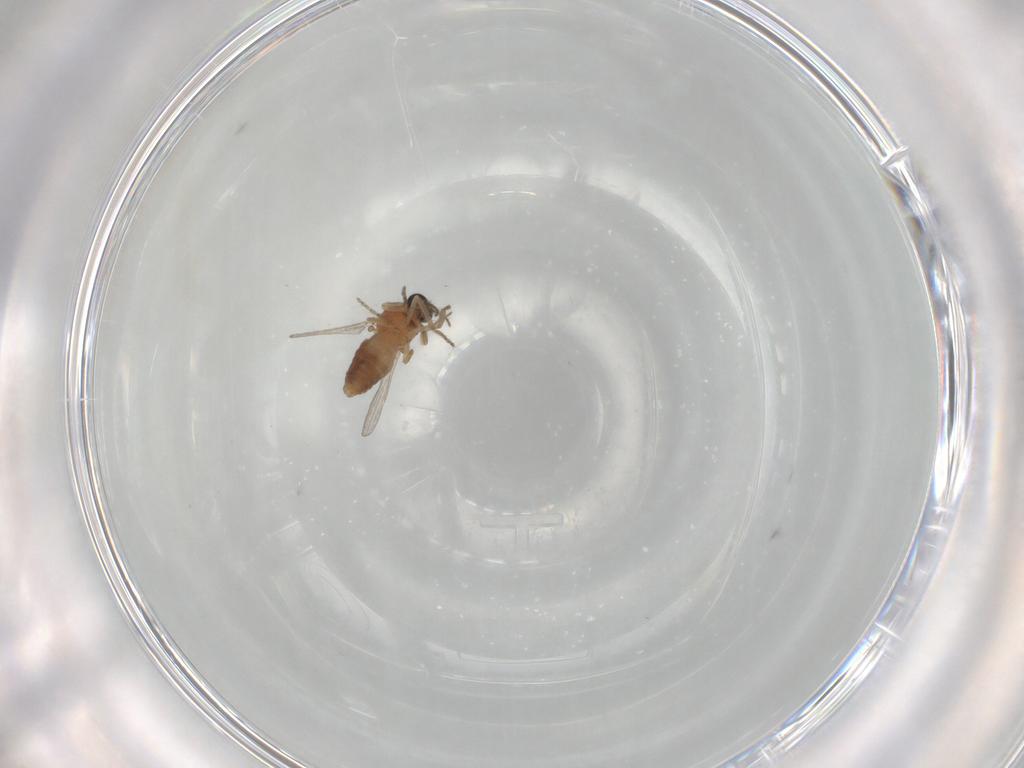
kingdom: Animalia
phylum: Arthropoda
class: Insecta
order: Diptera
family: Ceratopogonidae
